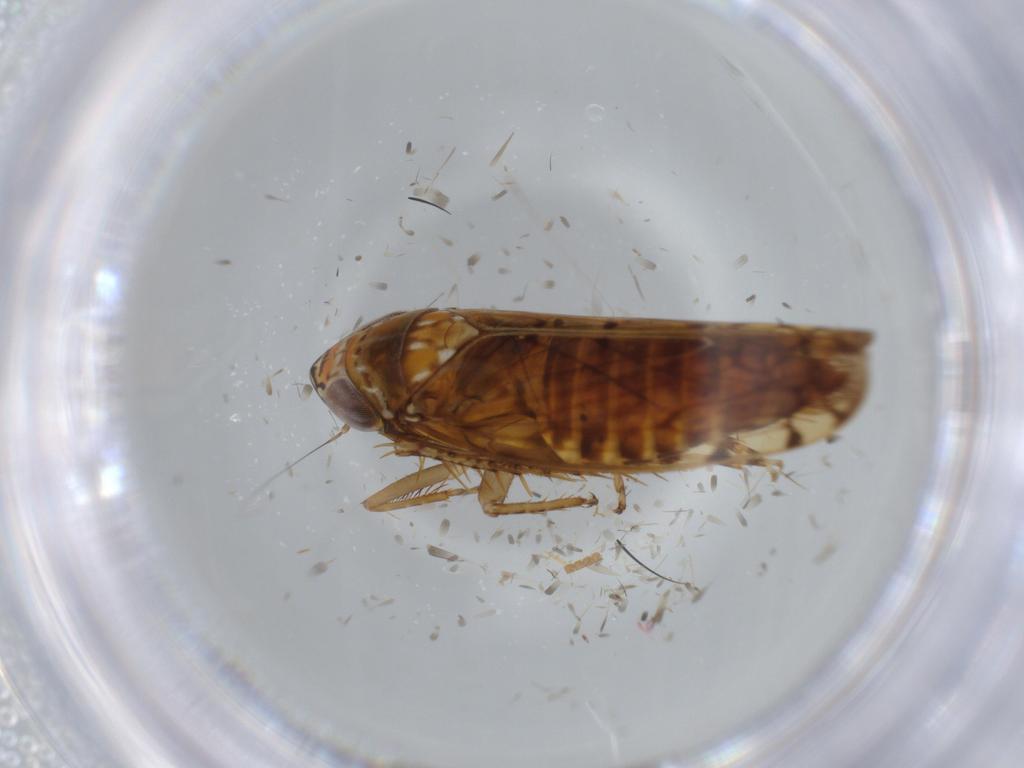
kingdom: Animalia
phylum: Arthropoda
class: Insecta
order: Hemiptera
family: Cicadellidae
